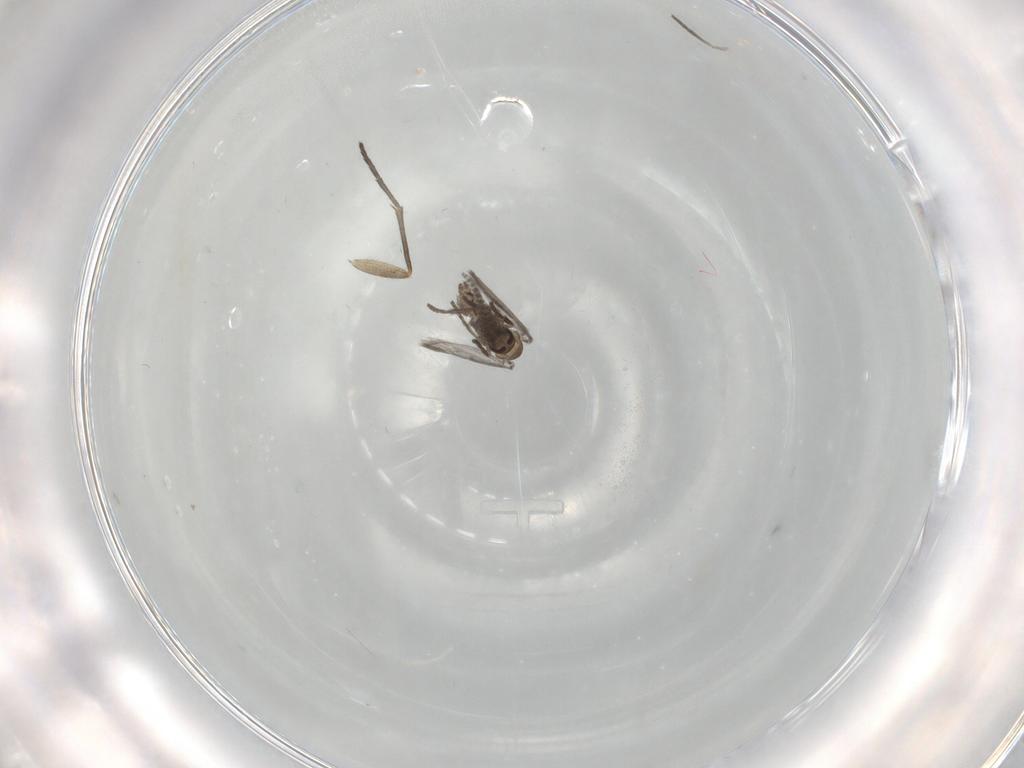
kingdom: Animalia
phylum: Arthropoda
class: Insecta
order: Diptera
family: Psychodidae
